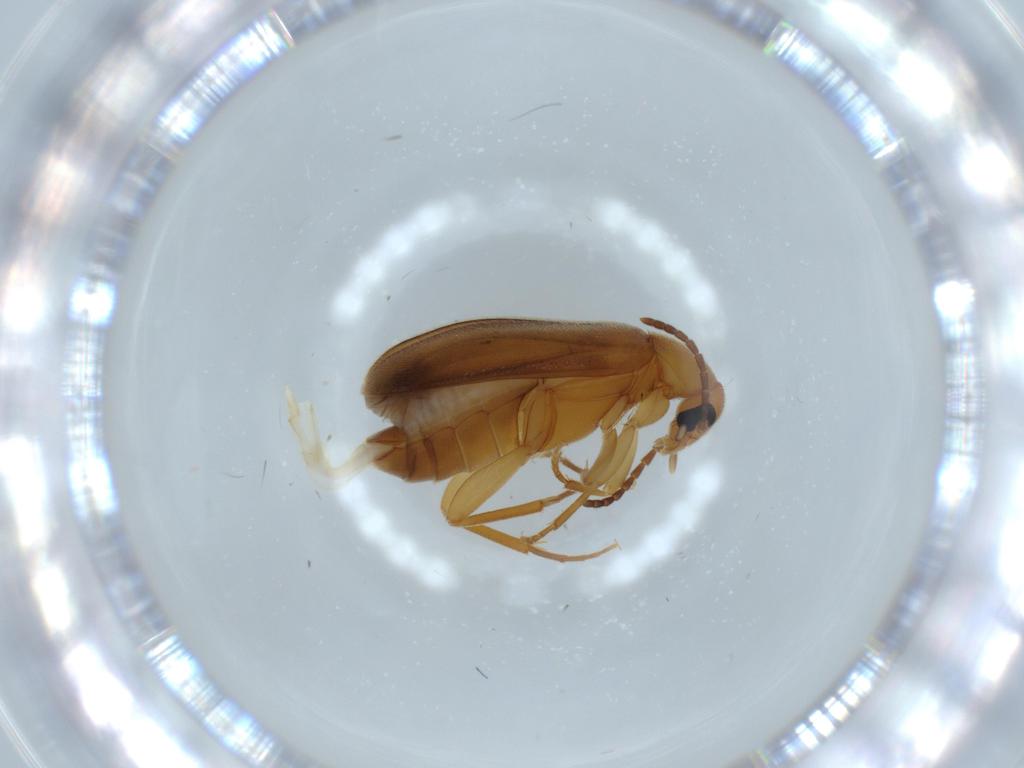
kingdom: Animalia
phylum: Arthropoda
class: Insecta
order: Coleoptera
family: Scraptiidae
